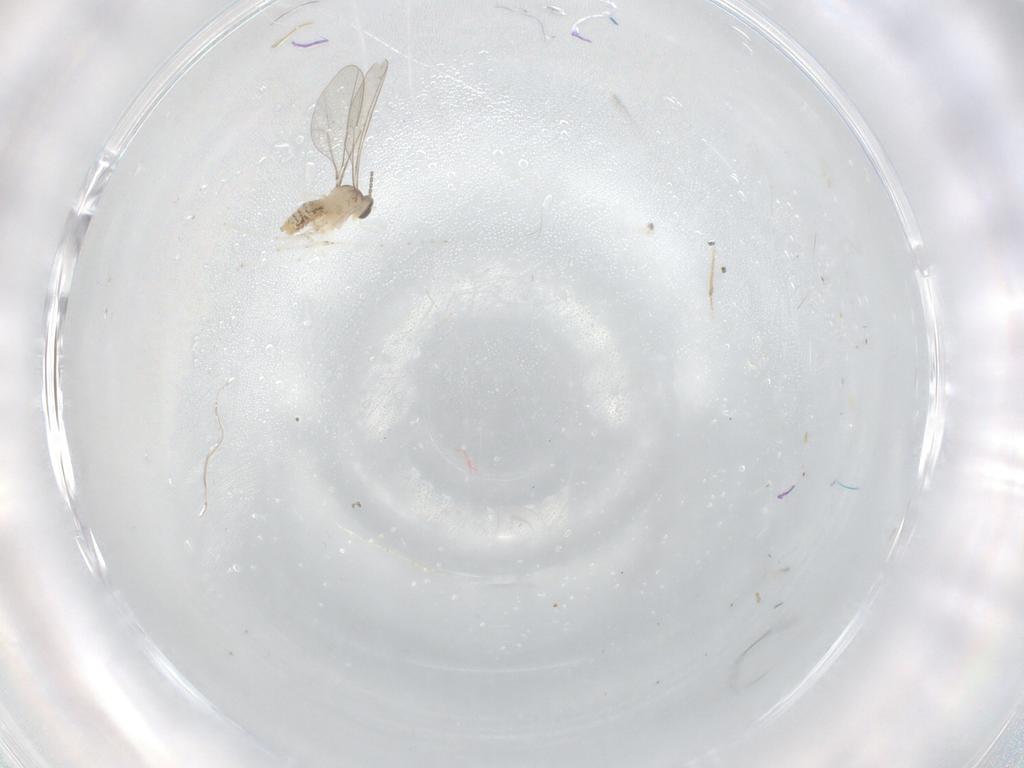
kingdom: Animalia
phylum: Arthropoda
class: Insecta
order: Diptera
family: Cecidomyiidae
